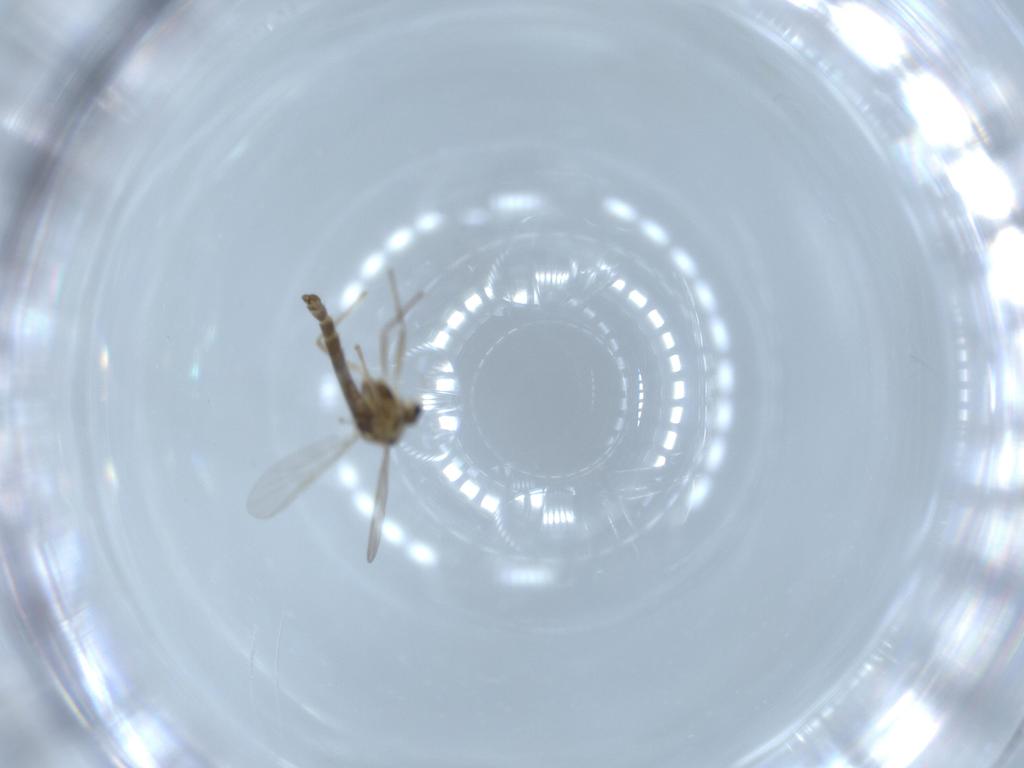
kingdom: Animalia
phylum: Arthropoda
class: Insecta
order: Diptera
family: Chironomidae
